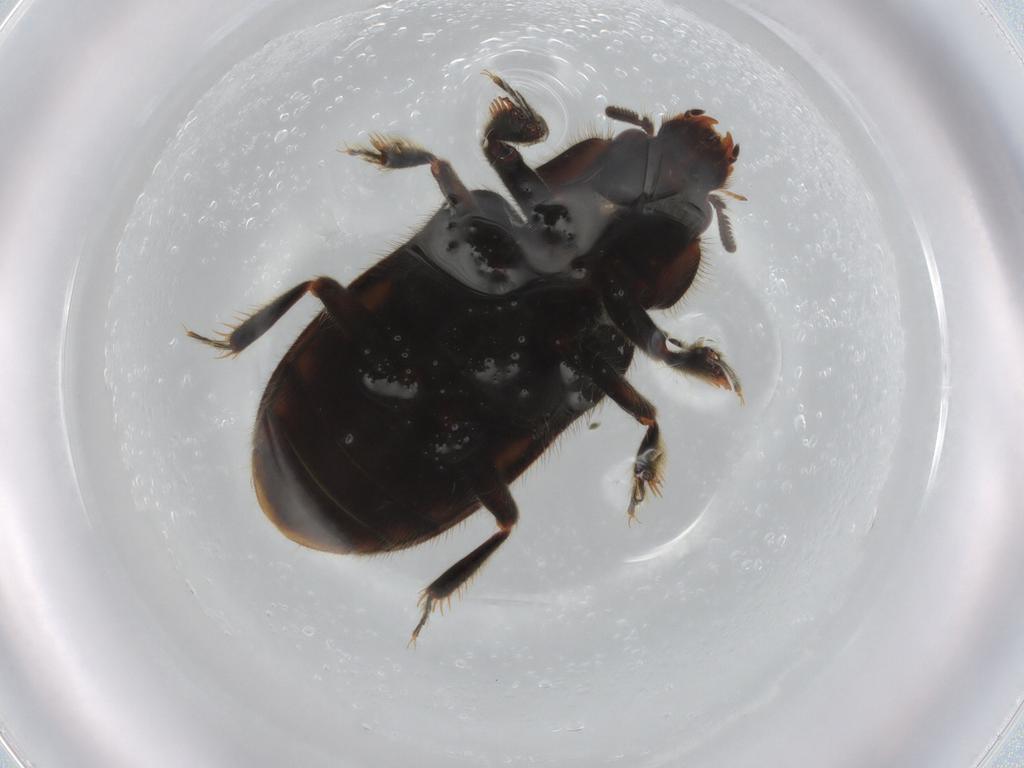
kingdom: Animalia
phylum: Arthropoda
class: Insecta
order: Coleoptera
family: Heteroceridae
